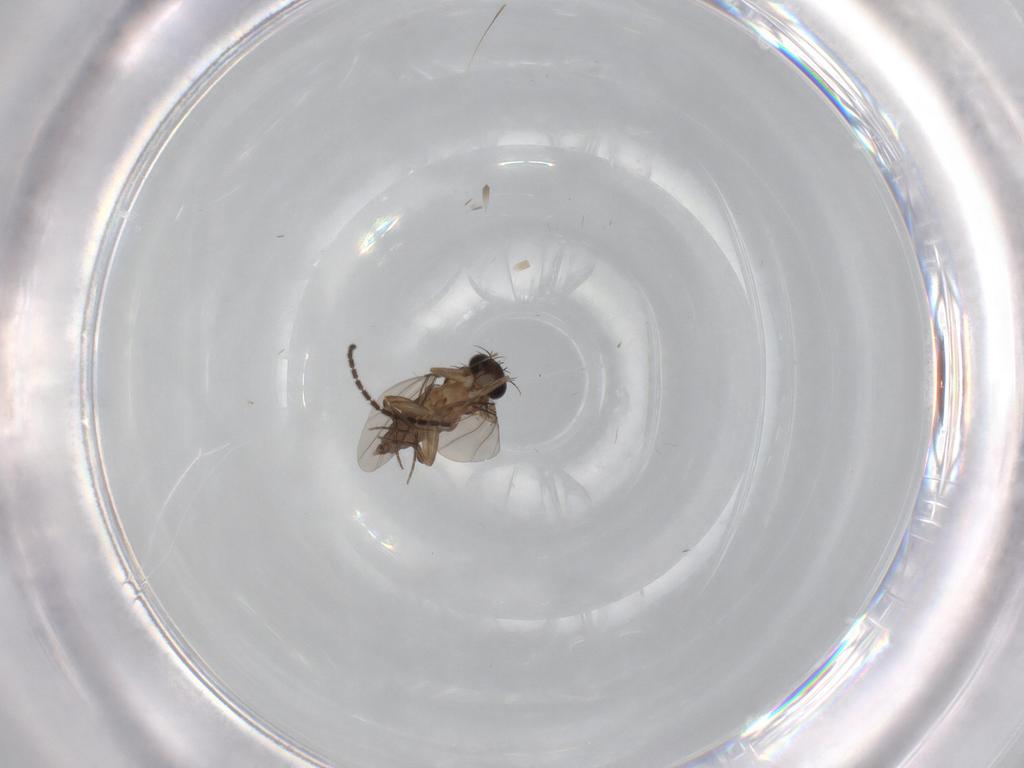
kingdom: Animalia
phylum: Arthropoda
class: Insecta
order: Diptera
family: Phoridae
